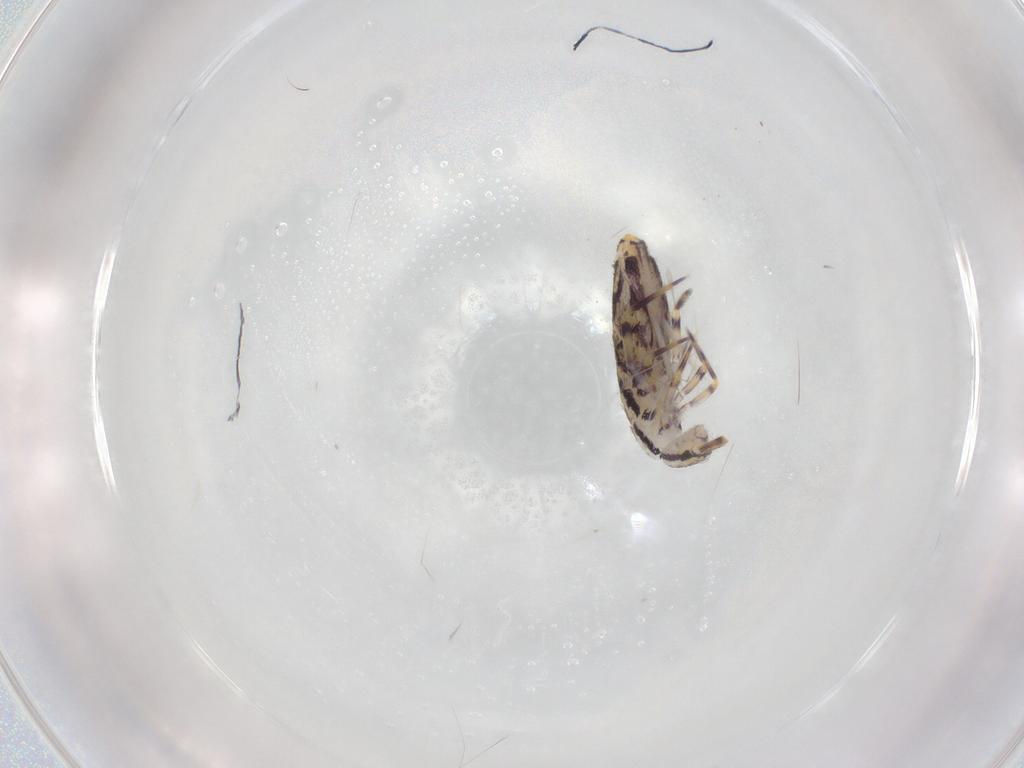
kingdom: Animalia
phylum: Arthropoda
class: Collembola
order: Entomobryomorpha
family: Entomobryidae
